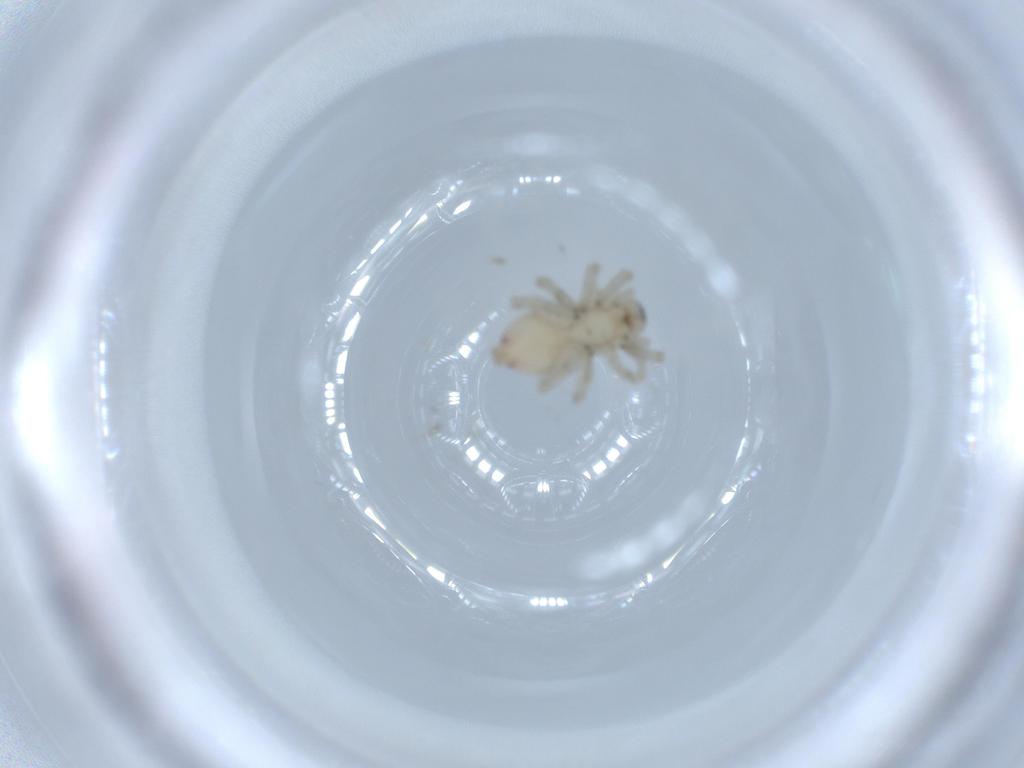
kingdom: Animalia
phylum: Arthropoda
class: Arachnida
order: Araneae
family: Clubionidae
